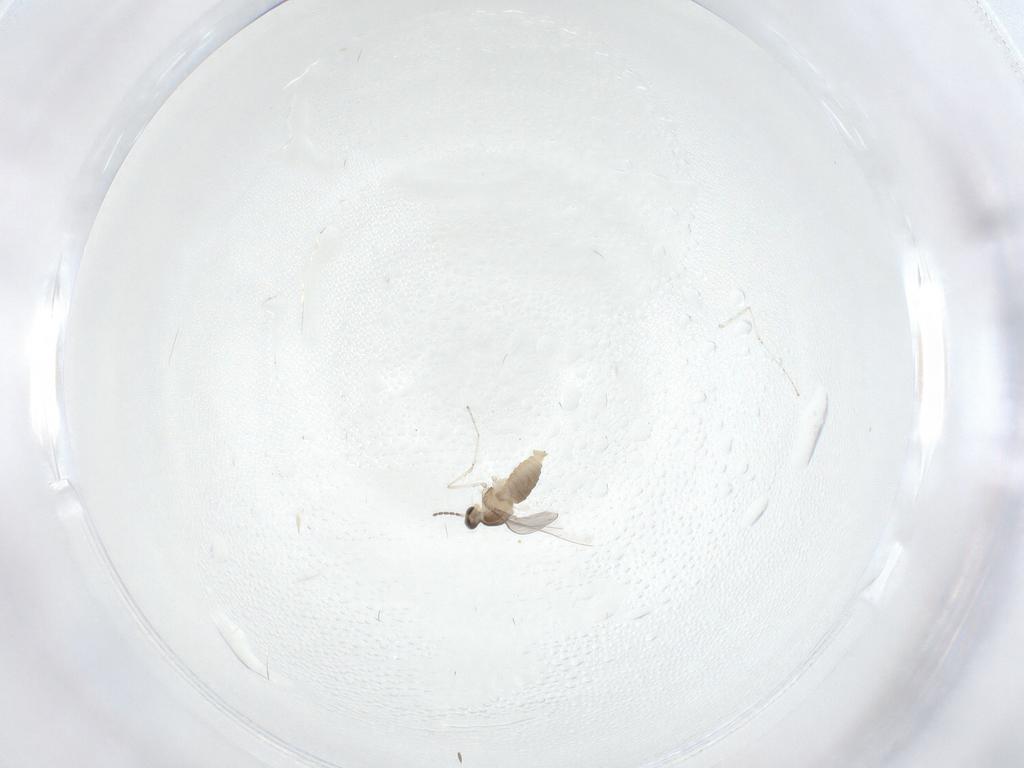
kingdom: Animalia
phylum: Arthropoda
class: Insecta
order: Diptera
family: Cecidomyiidae
